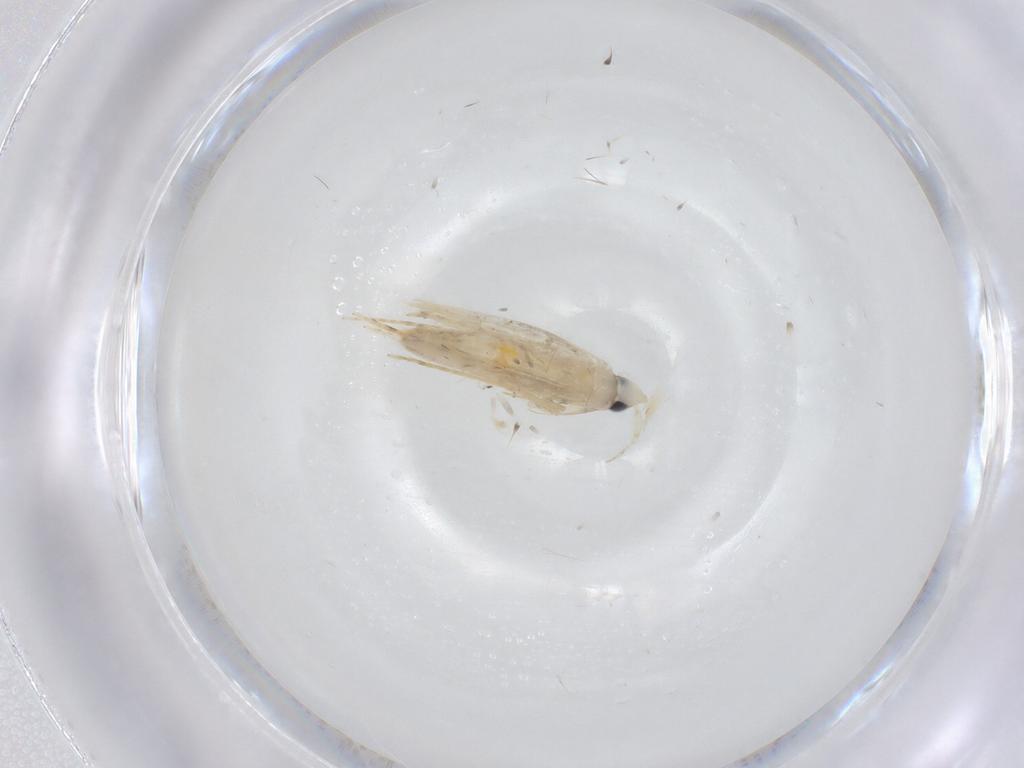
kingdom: Animalia
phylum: Arthropoda
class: Insecta
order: Lepidoptera
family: Tineidae
